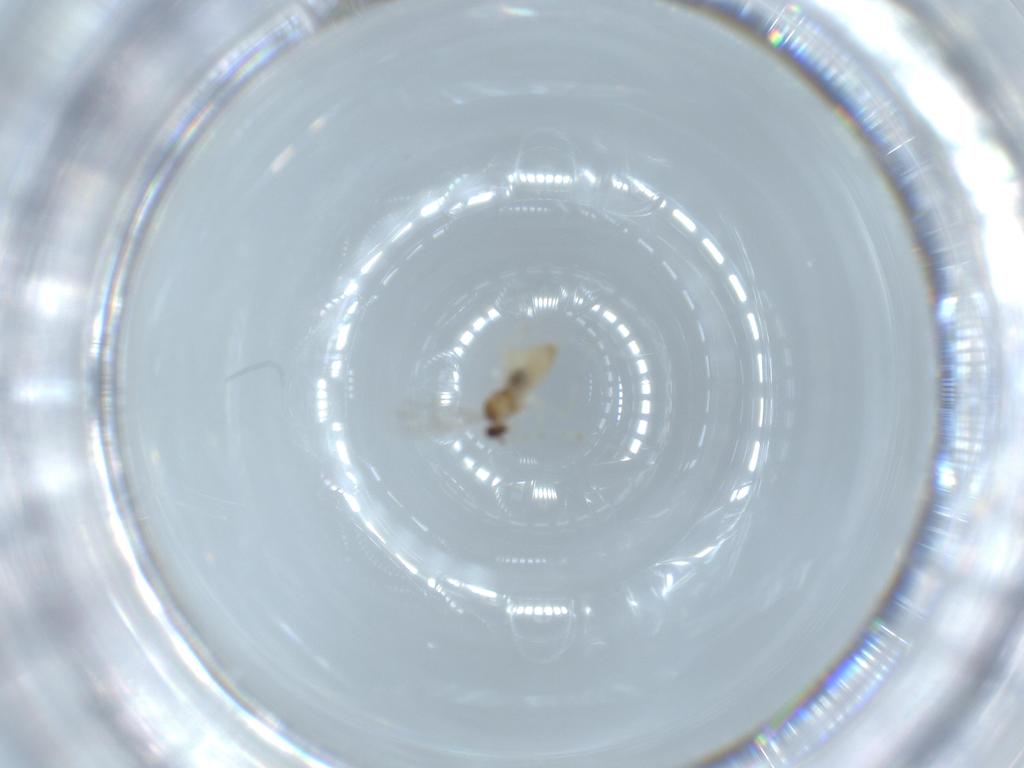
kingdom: Animalia
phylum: Arthropoda
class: Insecta
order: Diptera
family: Cecidomyiidae
